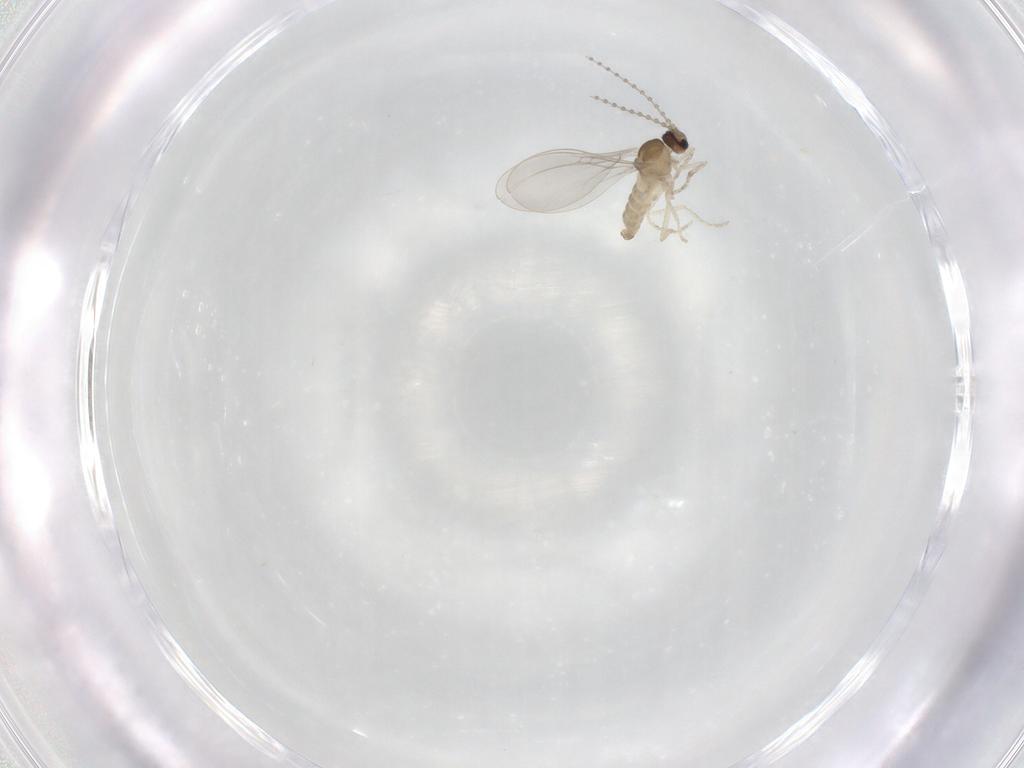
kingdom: Animalia
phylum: Arthropoda
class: Insecta
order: Diptera
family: Cecidomyiidae
